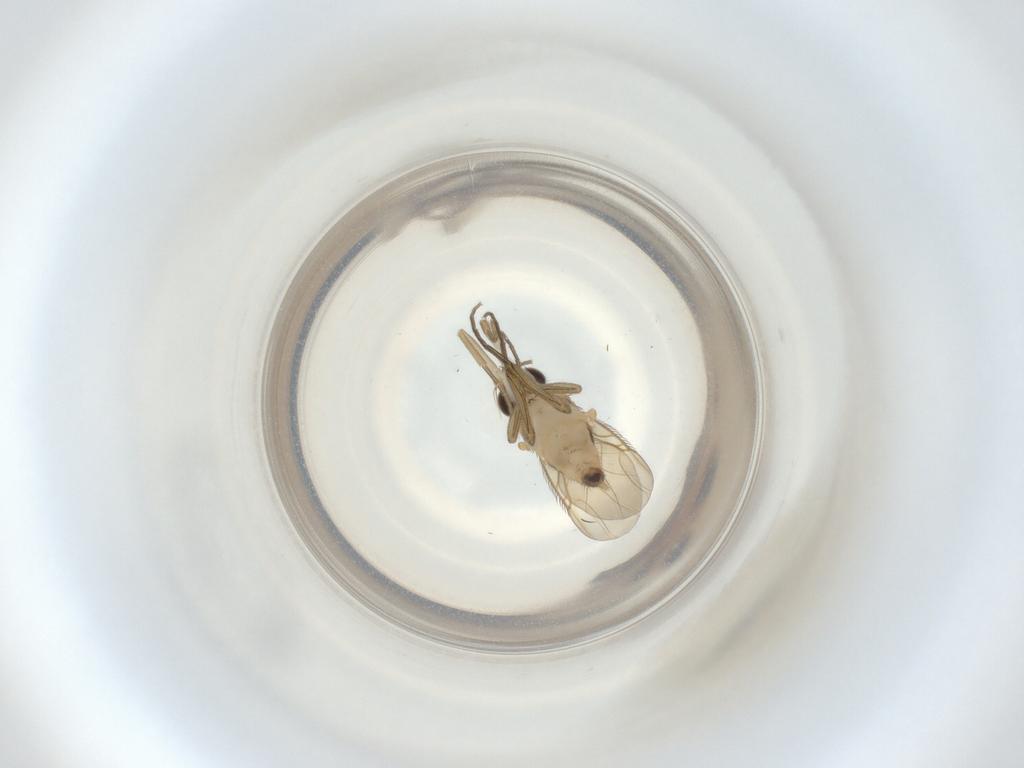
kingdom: Animalia
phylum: Arthropoda
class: Insecta
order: Diptera
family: Phoridae
